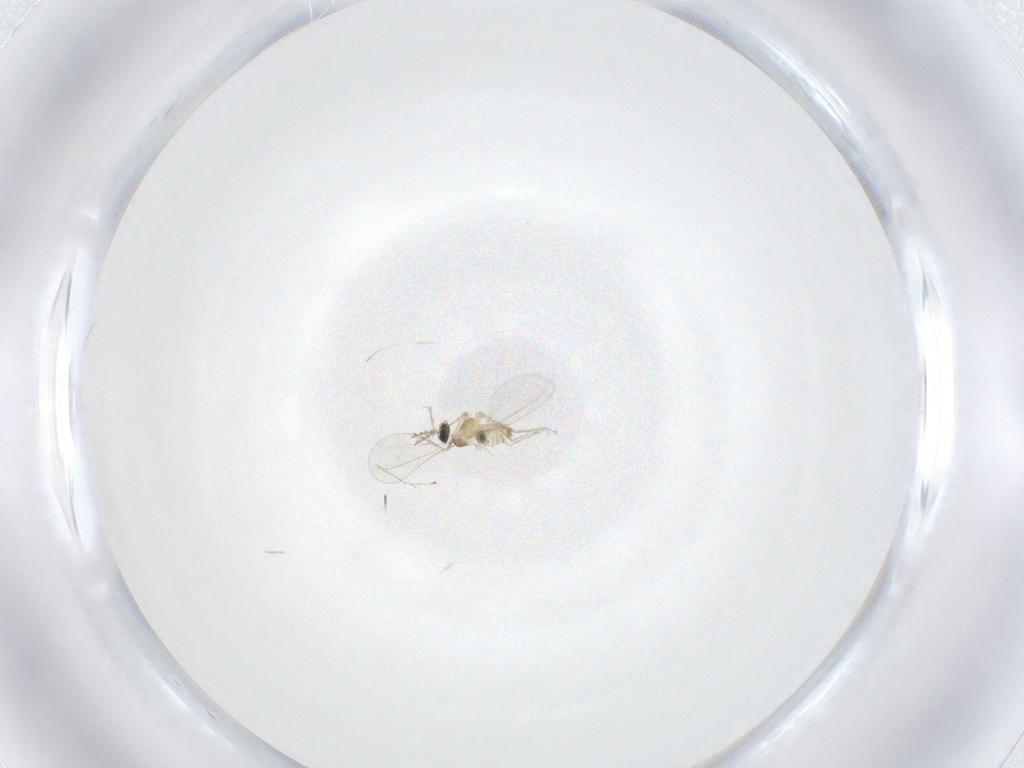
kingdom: Animalia
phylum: Arthropoda
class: Insecta
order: Diptera
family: Cecidomyiidae
